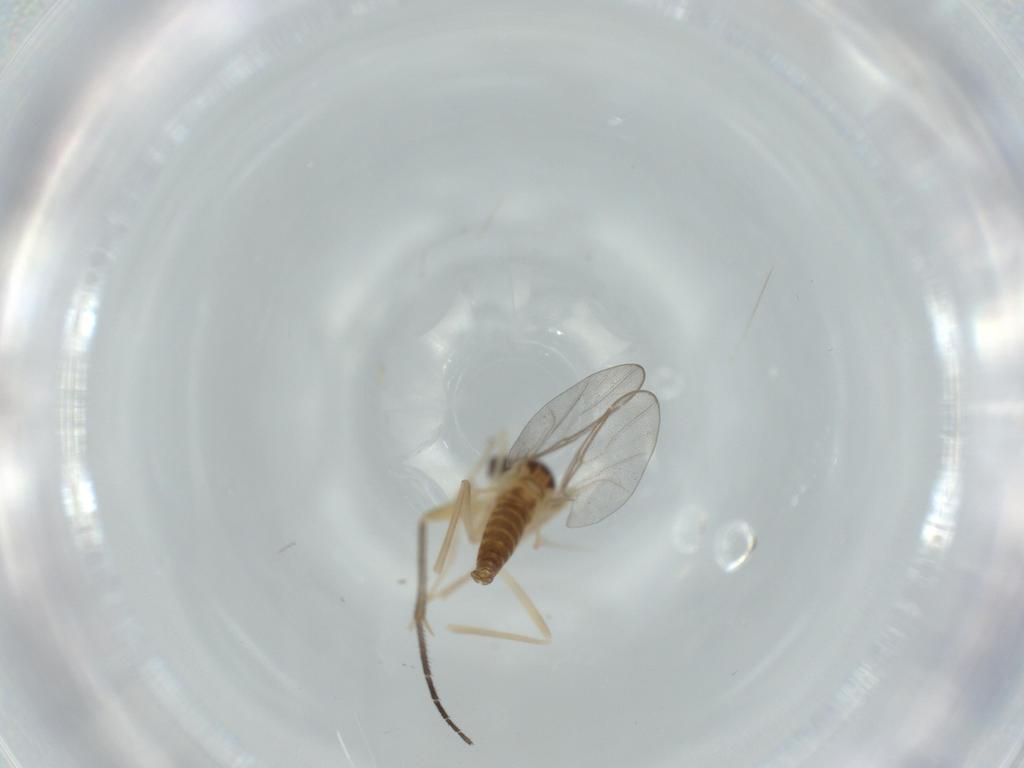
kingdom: Animalia
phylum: Arthropoda
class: Insecta
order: Diptera
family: Cecidomyiidae
